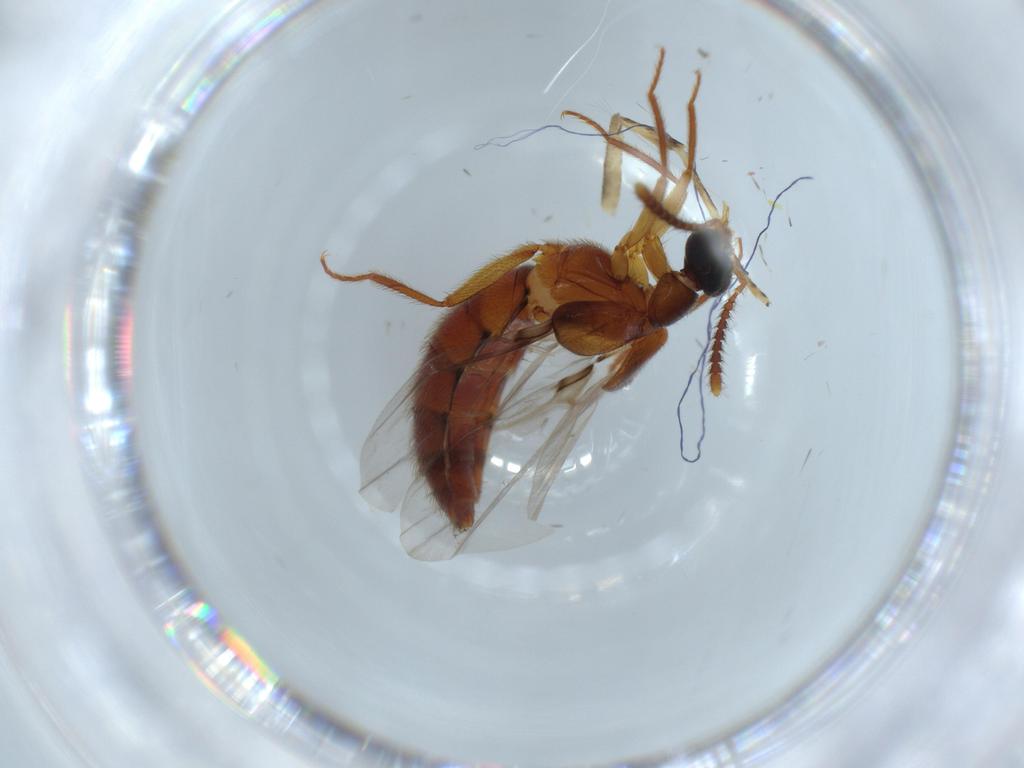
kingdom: Animalia
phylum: Arthropoda
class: Insecta
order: Coleoptera
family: Staphylinidae
